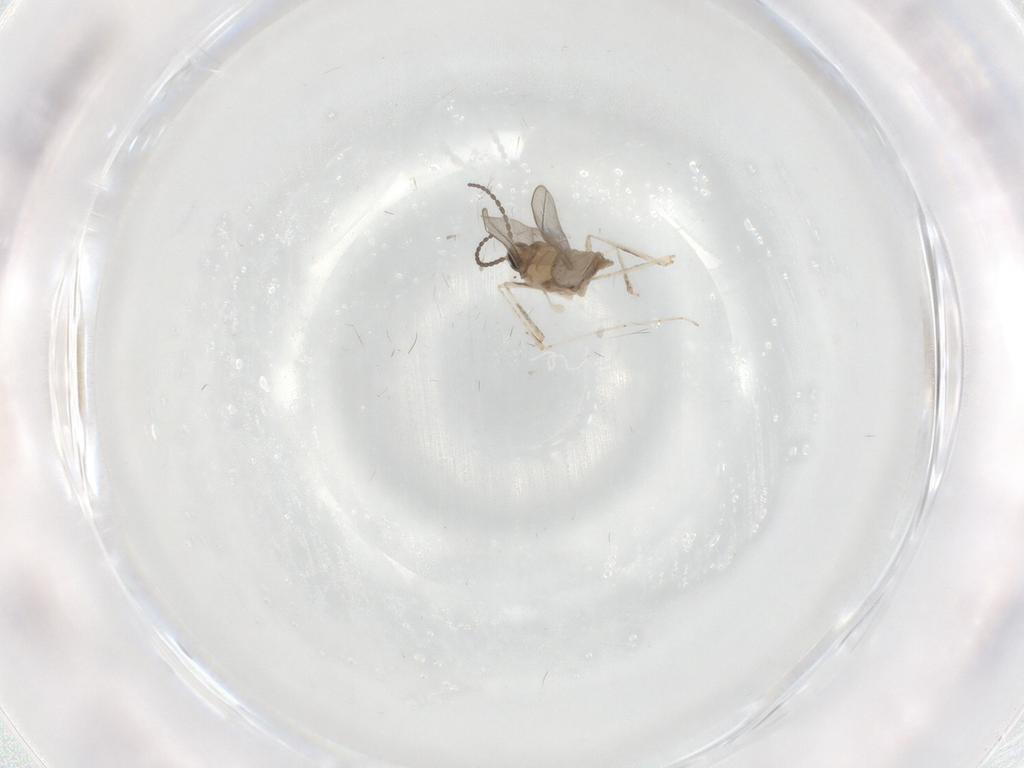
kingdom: Animalia
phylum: Arthropoda
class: Insecta
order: Diptera
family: Cecidomyiidae
